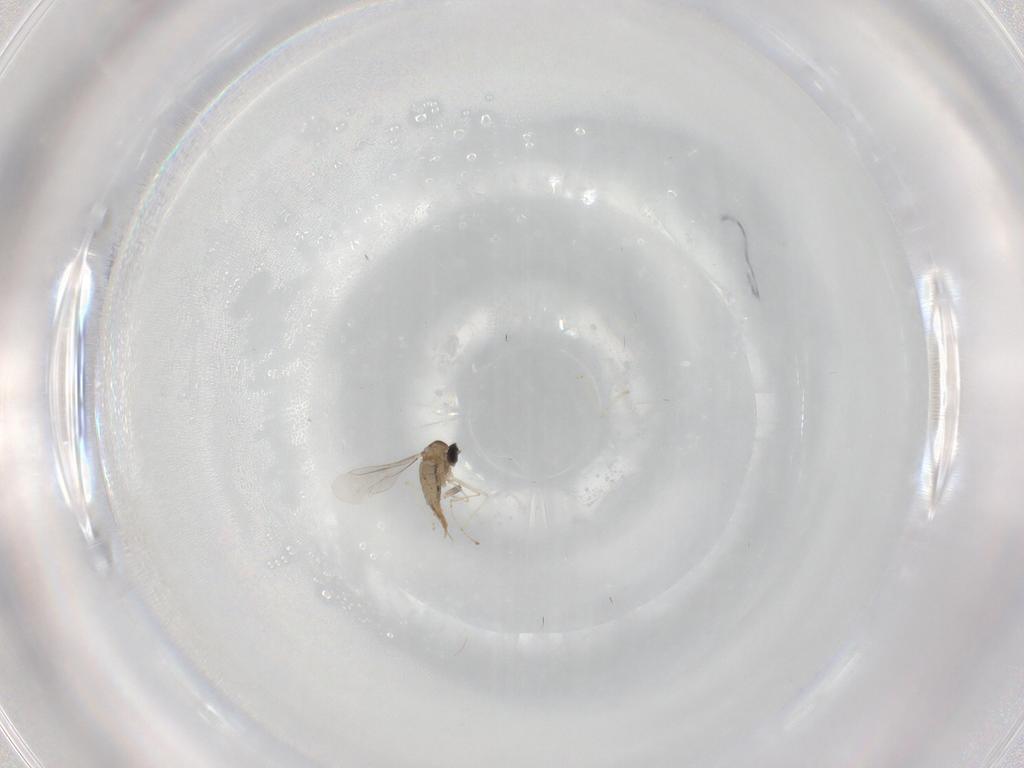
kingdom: Animalia
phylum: Arthropoda
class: Insecta
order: Diptera
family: Cecidomyiidae
